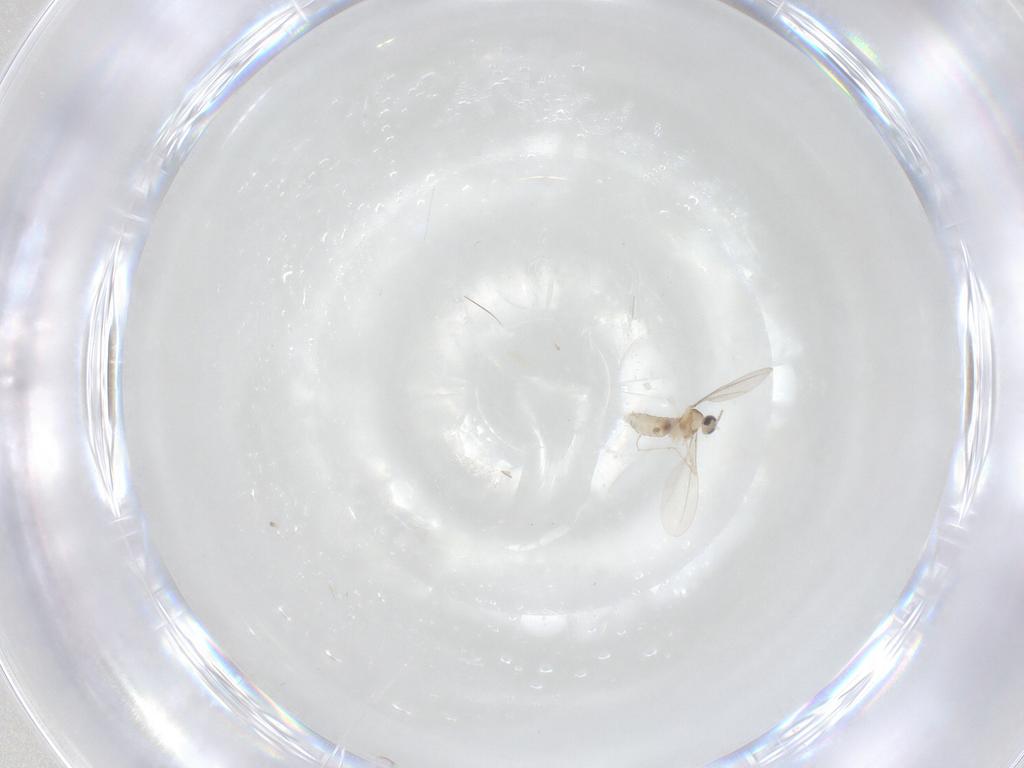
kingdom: Animalia
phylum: Arthropoda
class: Insecta
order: Diptera
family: Cecidomyiidae
